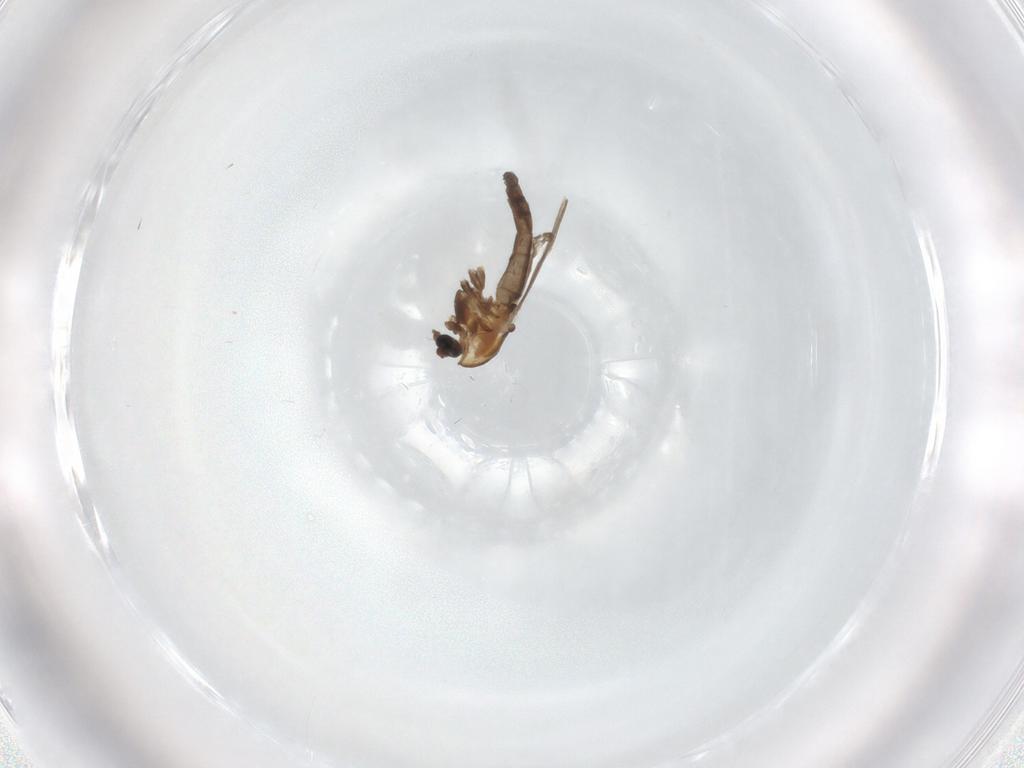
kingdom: Animalia
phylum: Arthropoda
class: Insecta
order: Diptera
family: Chironomidae
